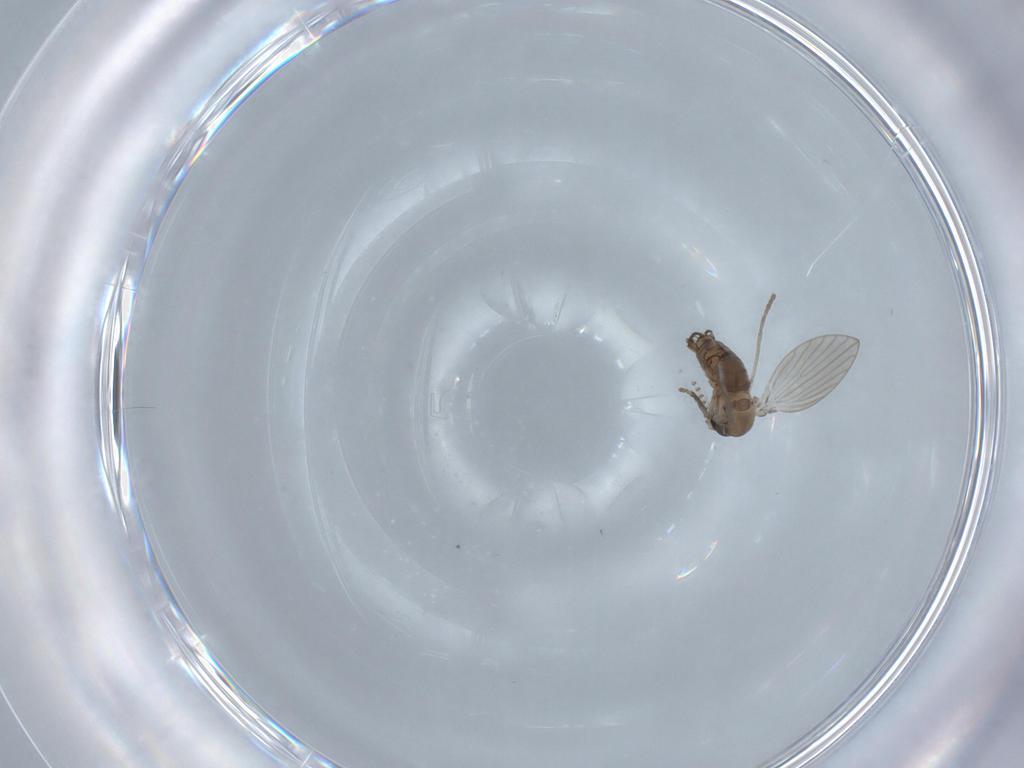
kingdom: Animalia
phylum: Arthropoda
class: Insecta
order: Diptera
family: Psychodidae
